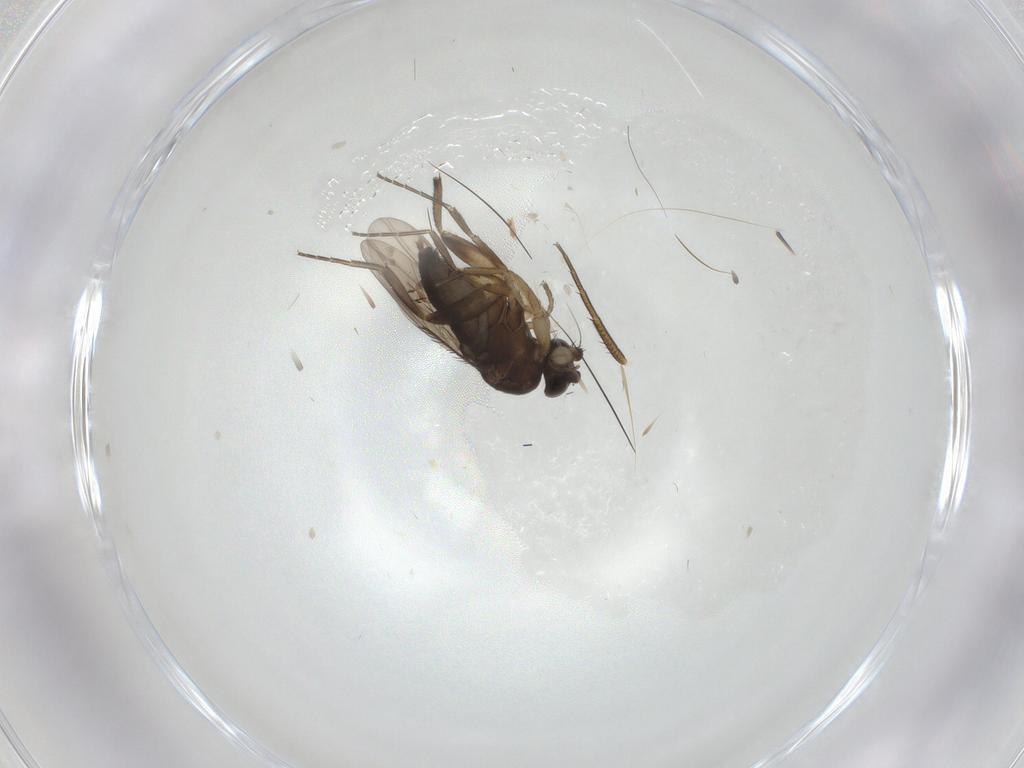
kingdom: Animalia
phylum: Arthropoda
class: Insecta
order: Diptera
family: Phoridae
